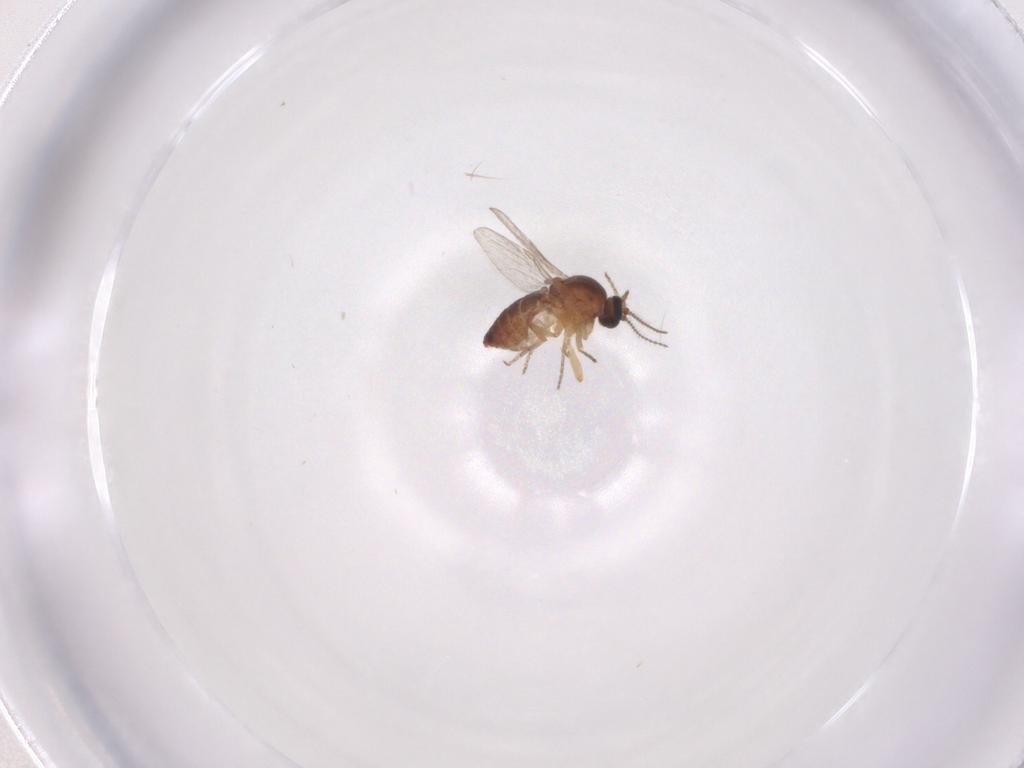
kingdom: Animalia
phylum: Arthropoda
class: Insecta
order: Diptera
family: Ceratopogonidae
